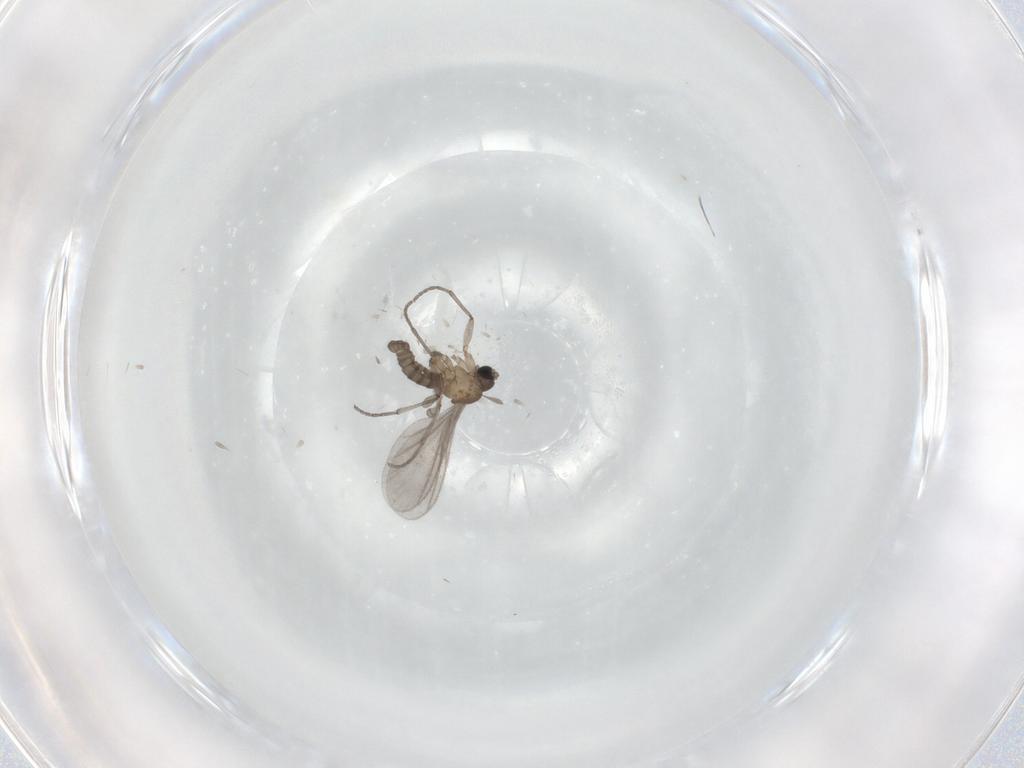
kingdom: Animalia
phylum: Arthropoda
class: Insecta
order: Diptera
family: Sciaridae
